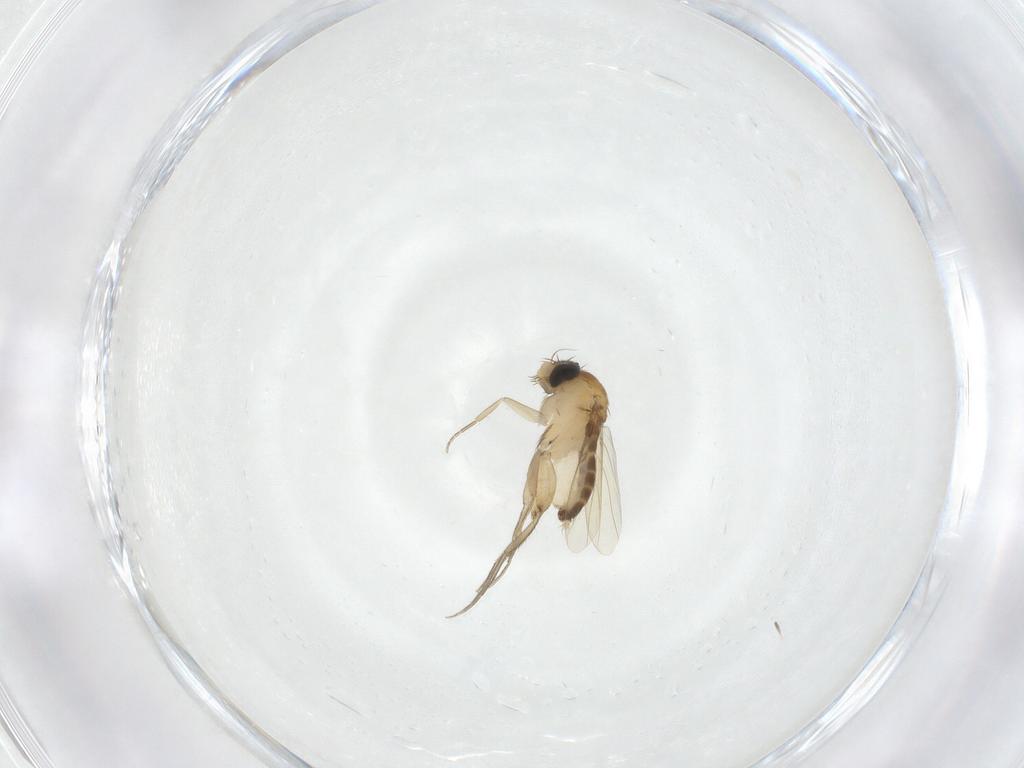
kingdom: Animalia
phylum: Arthropoda
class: Insecta
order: Diptera
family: Phoridae
